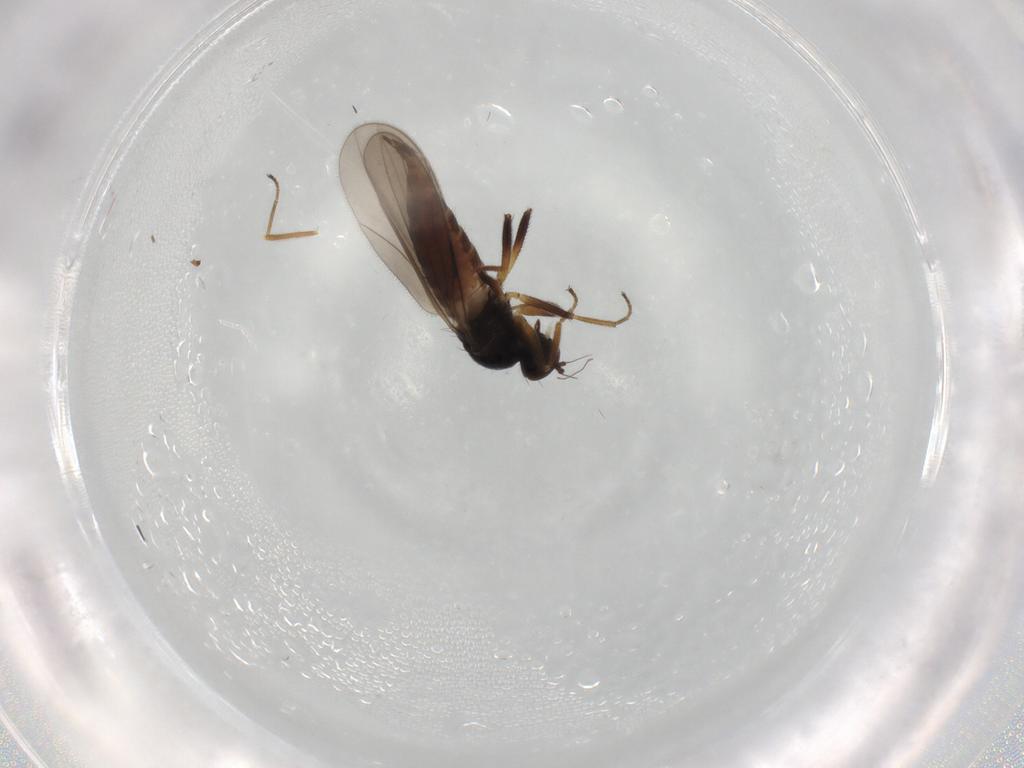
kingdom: Animalia
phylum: Arthropoda
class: Insecta
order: Diptera
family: Hybotidae
